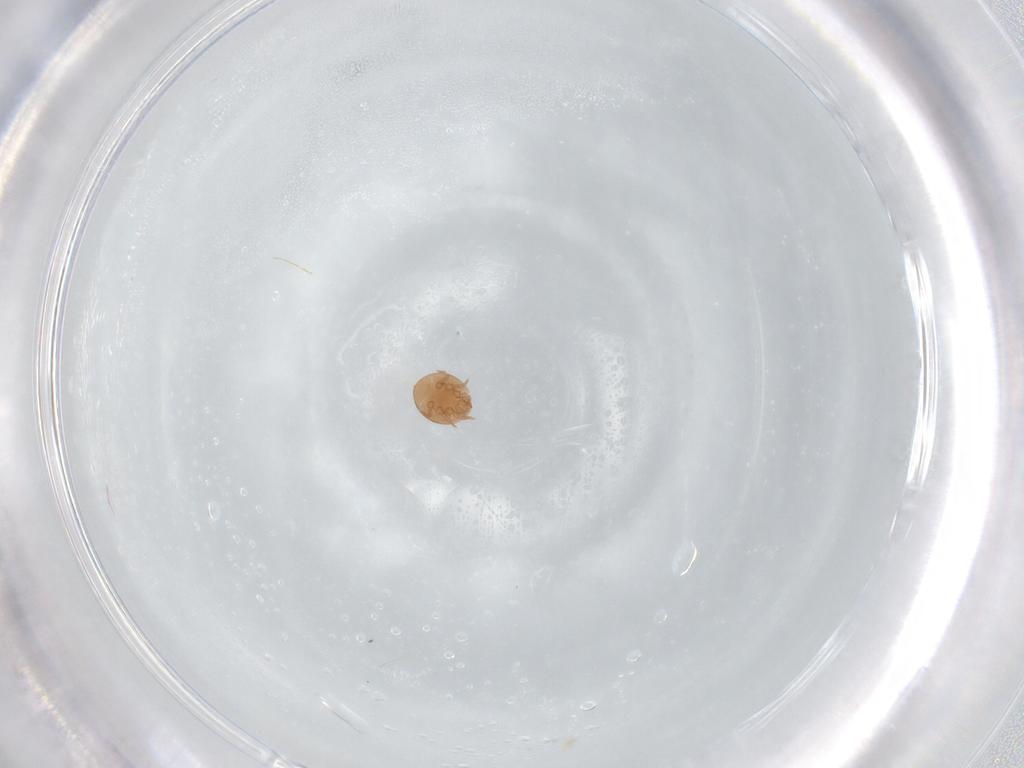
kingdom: Animalia
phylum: Arthropoda
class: Arachnida
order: Mesostigmata
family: Trematuridae
